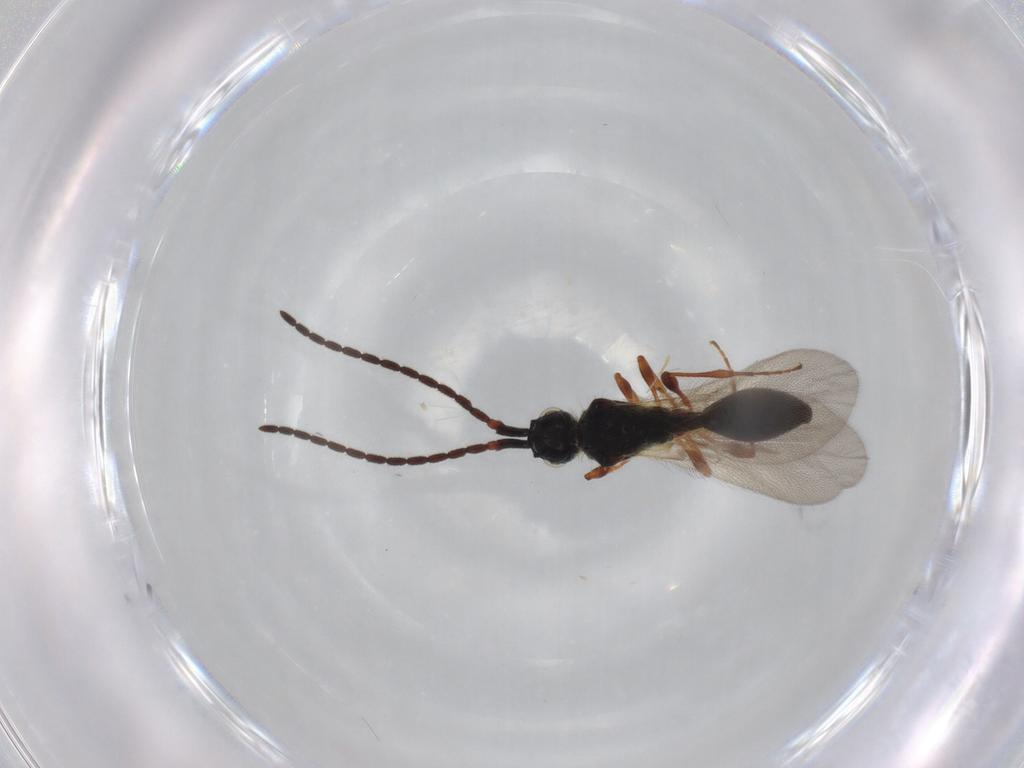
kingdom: Animalia
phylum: Arthropoda
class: Insecta
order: Hymenoptera
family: Diapriidae
